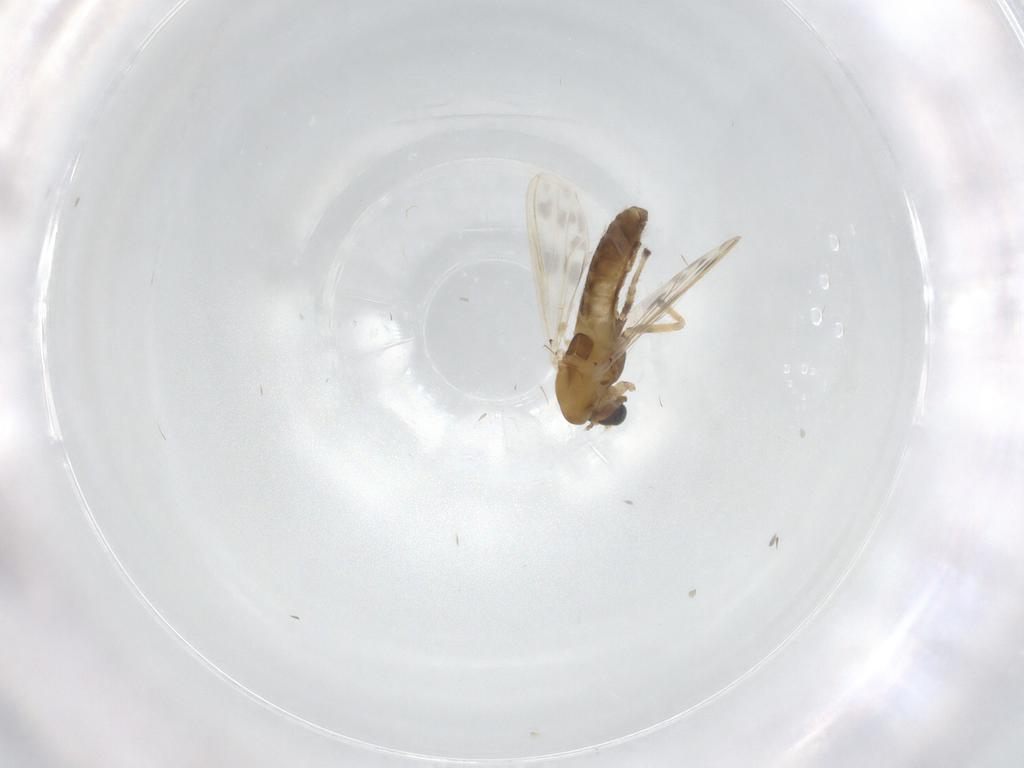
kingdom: Animalia
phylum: Arthropoda
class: Insecta
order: Diptera
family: Chironomidae
